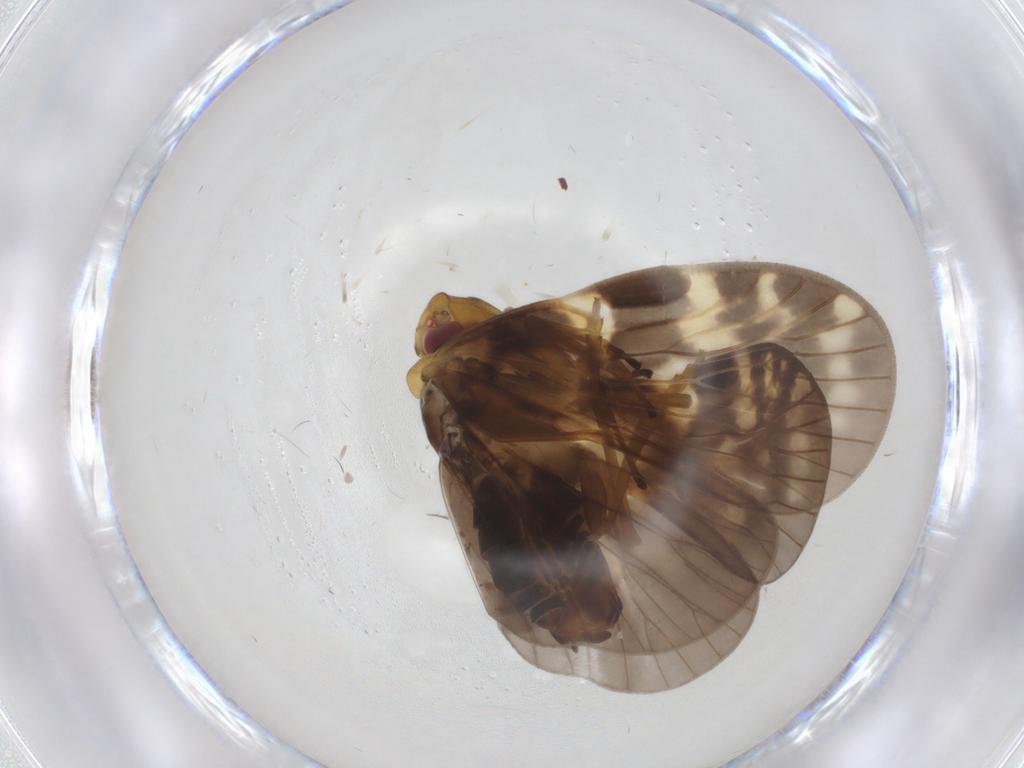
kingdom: Animalia
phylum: Arthropoda
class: Insecta
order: Hemiptera
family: Cixiidae
